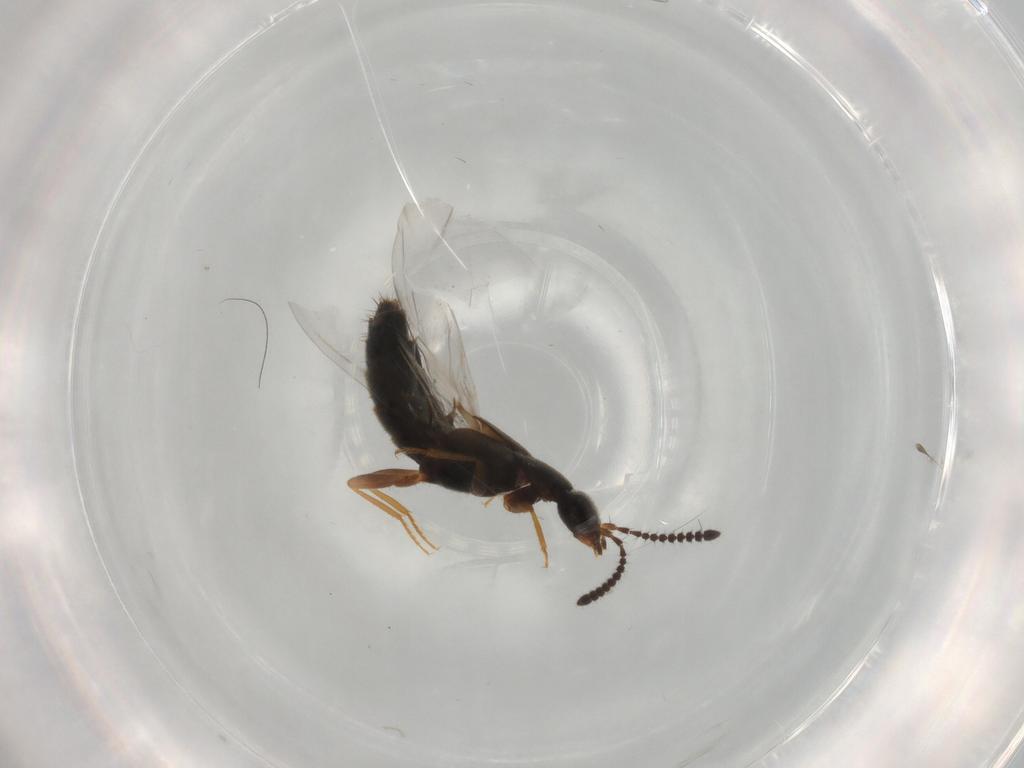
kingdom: Animalia
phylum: Arthropoda
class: Insecta
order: Coleoptera
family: Staphylinidae
